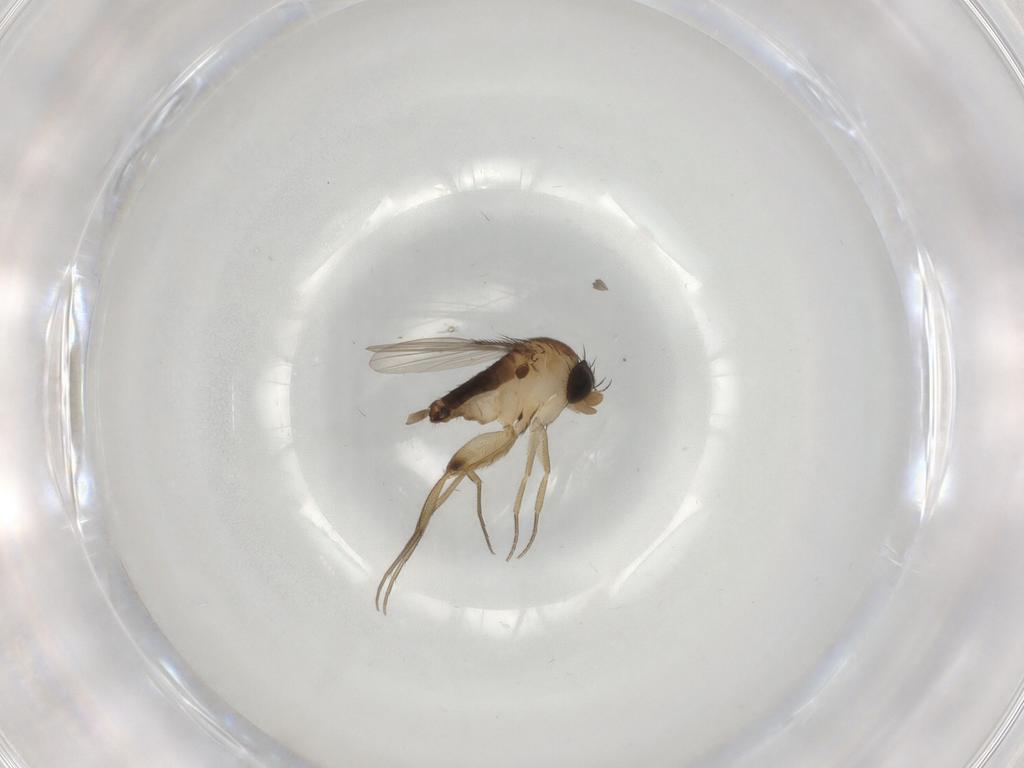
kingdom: Animalia
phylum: Arthropoda
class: Insecta
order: Diptera
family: Phoridae
